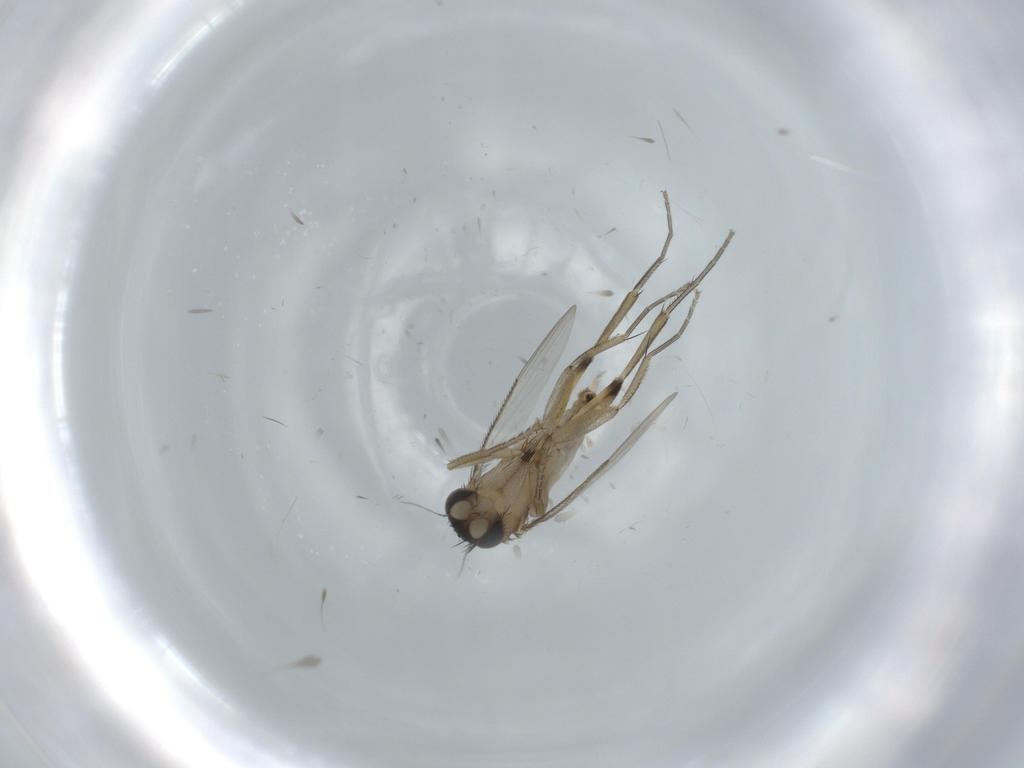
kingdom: Animalia
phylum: Arthropoda
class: Insecta
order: Diptera
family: Phoridae
